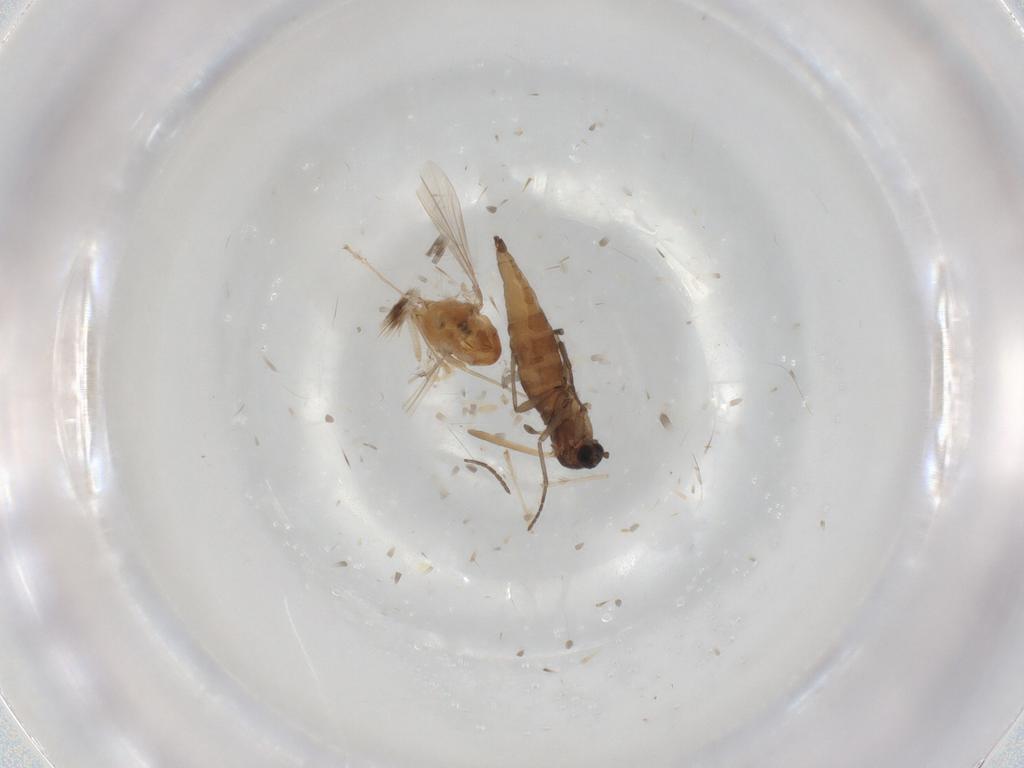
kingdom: Animalia
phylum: Arthropoda
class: Insecta
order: Diptera
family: Chironomidae
